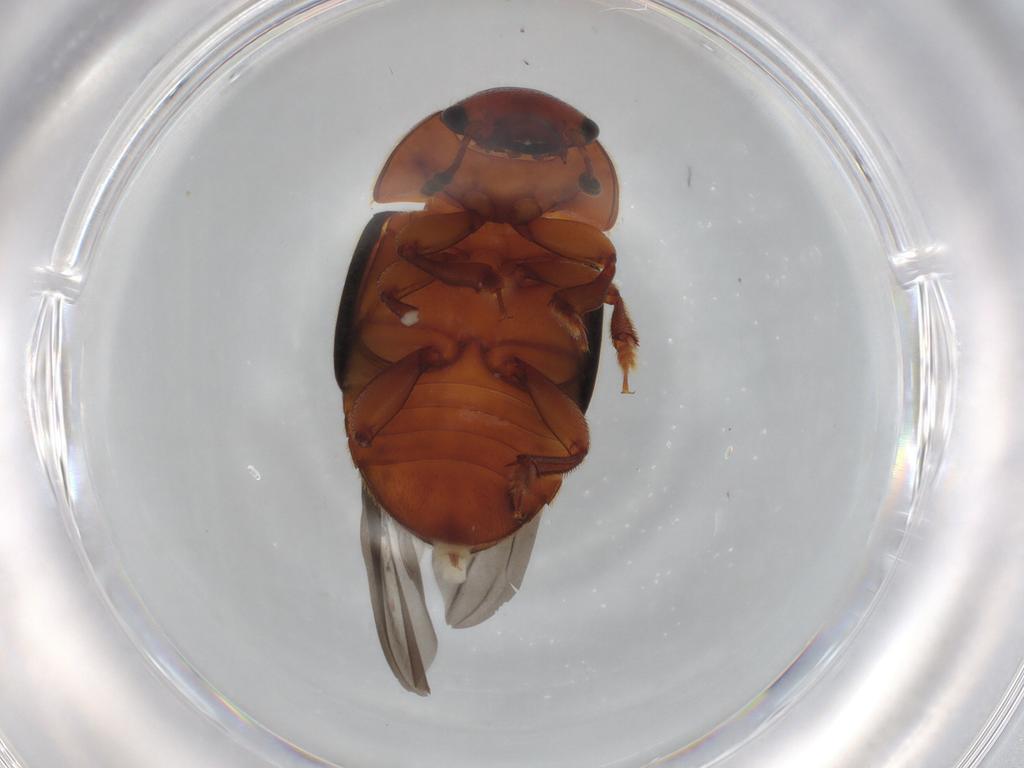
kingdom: Animalia
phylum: Arthropoda
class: Insecta
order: Coleoptera
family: Nitidulidae
